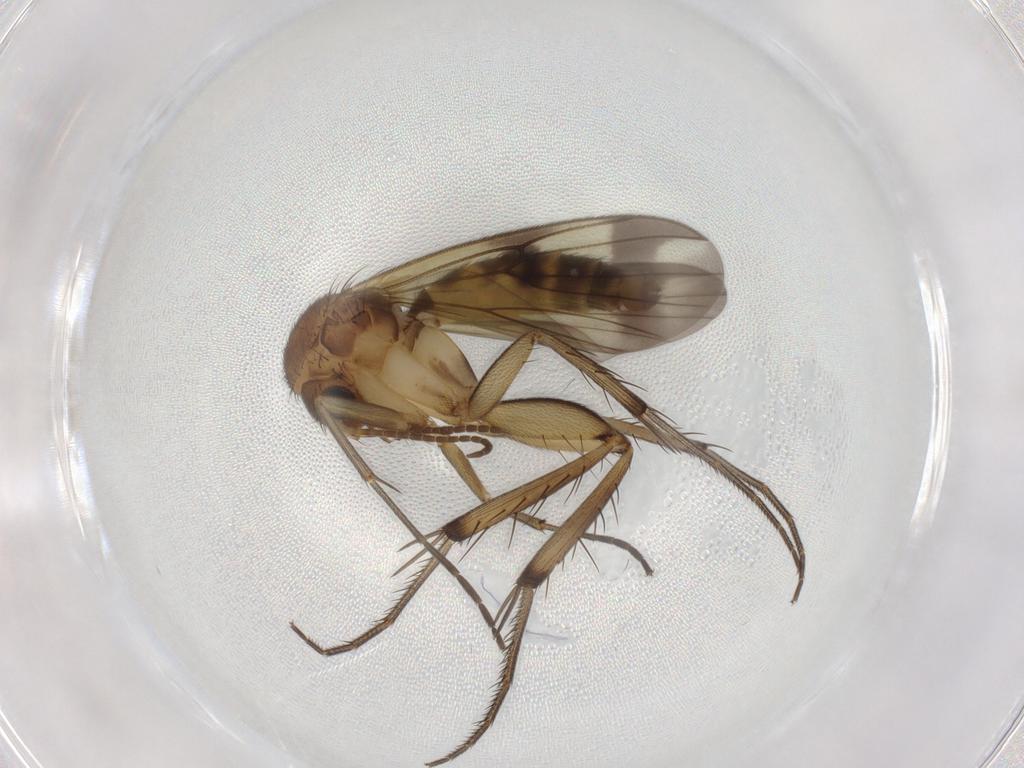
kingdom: Animalia
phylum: Arthropoda
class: Insecta
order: Diptera
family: Mycetophilidae
